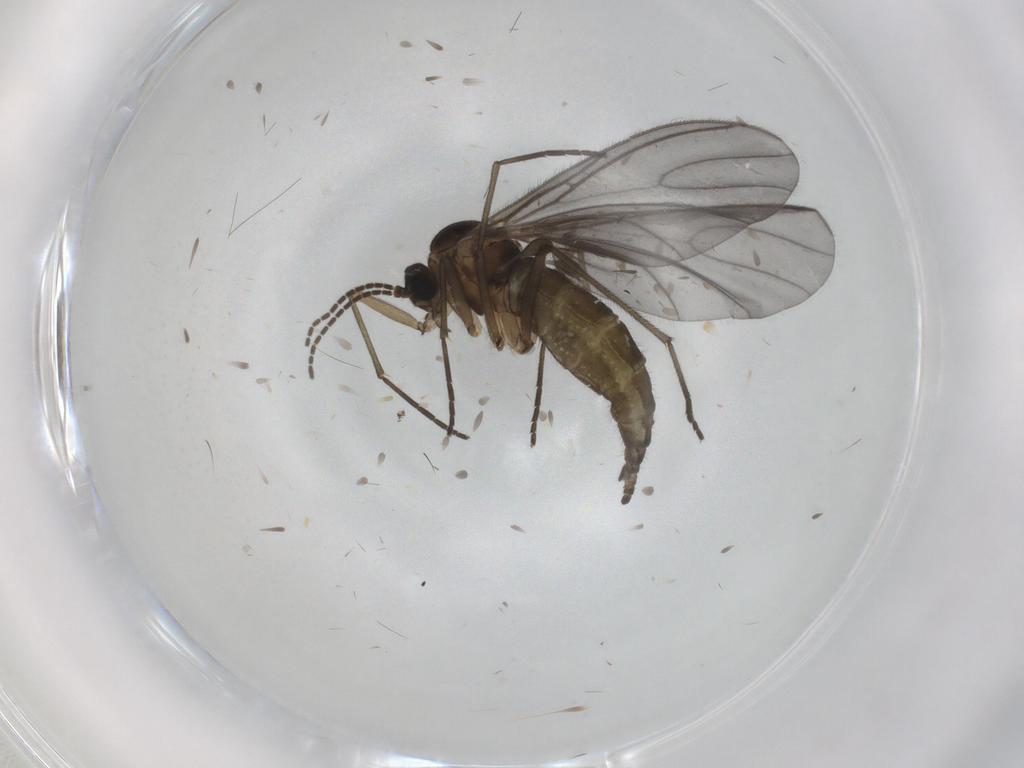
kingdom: Animalia
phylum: Arthropoda
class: Insecta
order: Diptera
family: Sciaridae
